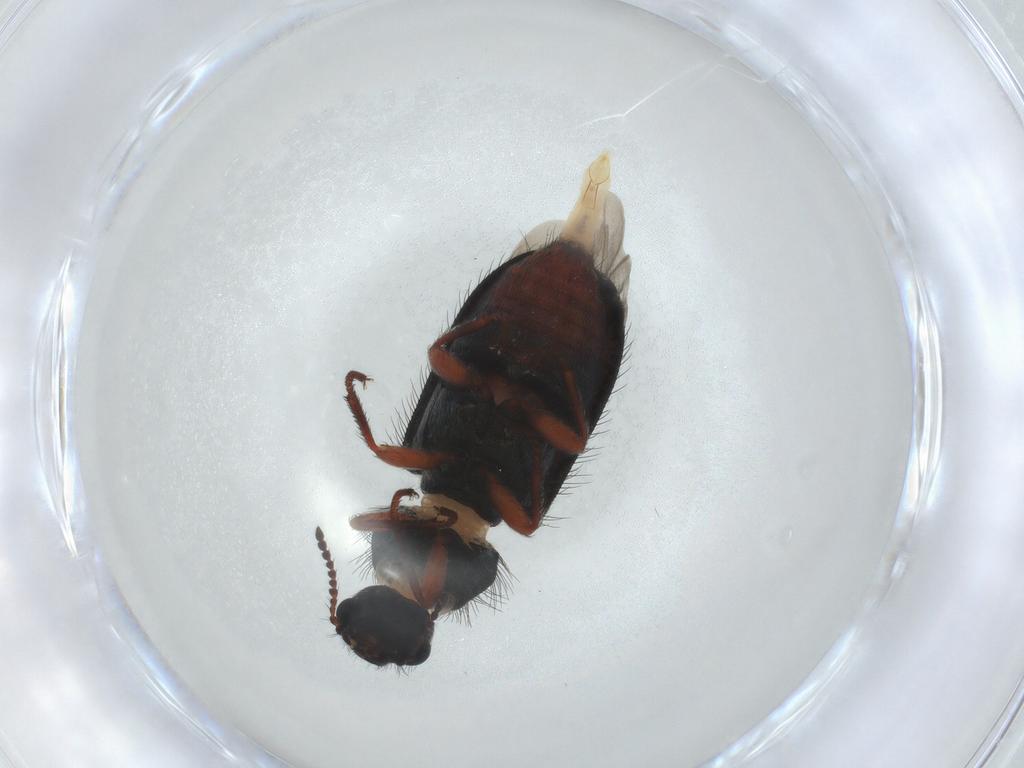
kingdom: Animalia
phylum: Arthropoda
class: Insecta
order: Coleoptera
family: Melyridae
